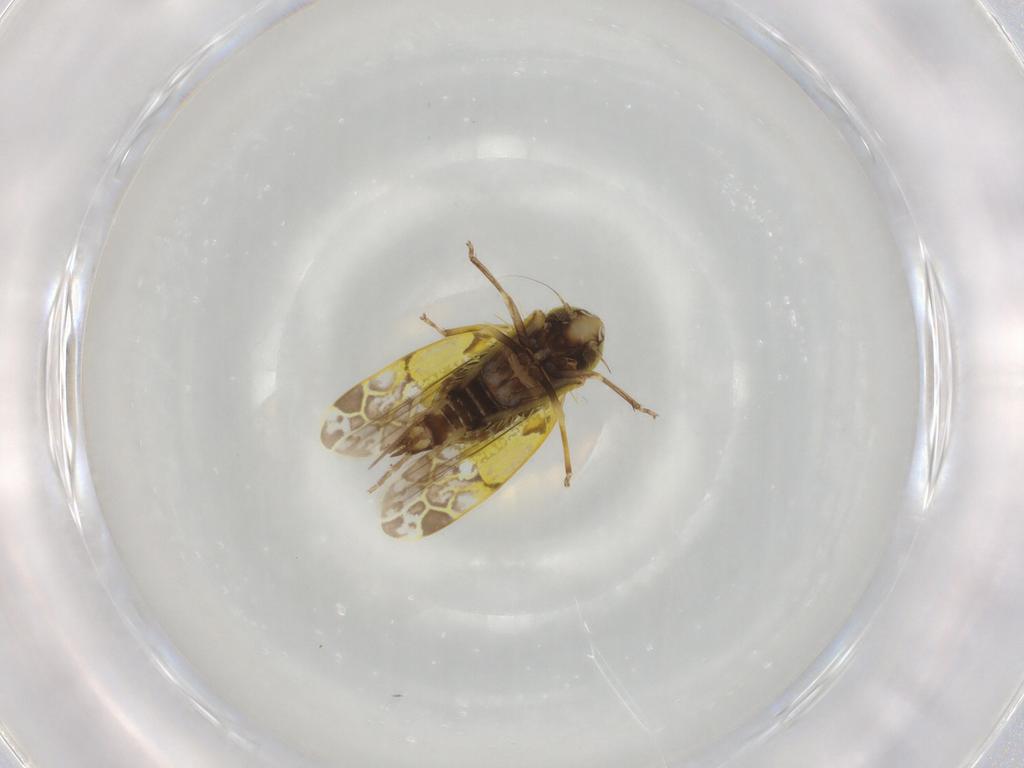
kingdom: Animalia
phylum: Arthropoda
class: Insecta
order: Hemiptera
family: Cicadellidae
